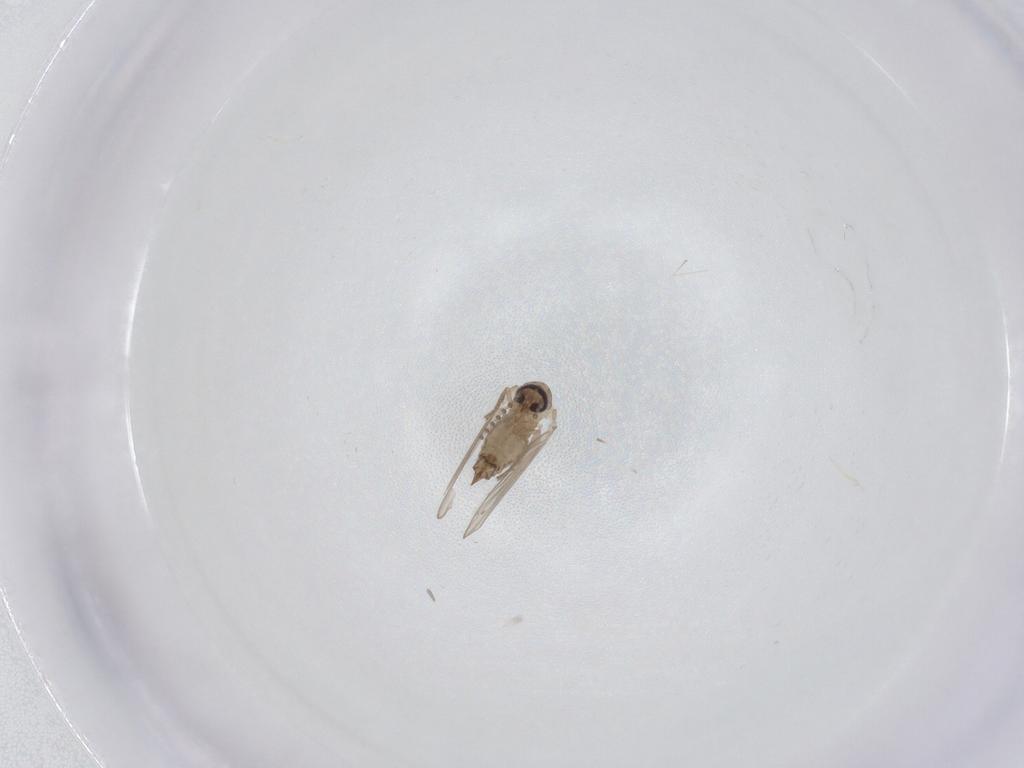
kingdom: Animalia
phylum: Arthropoda
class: Insecta
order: Diptera
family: Psychodidae
